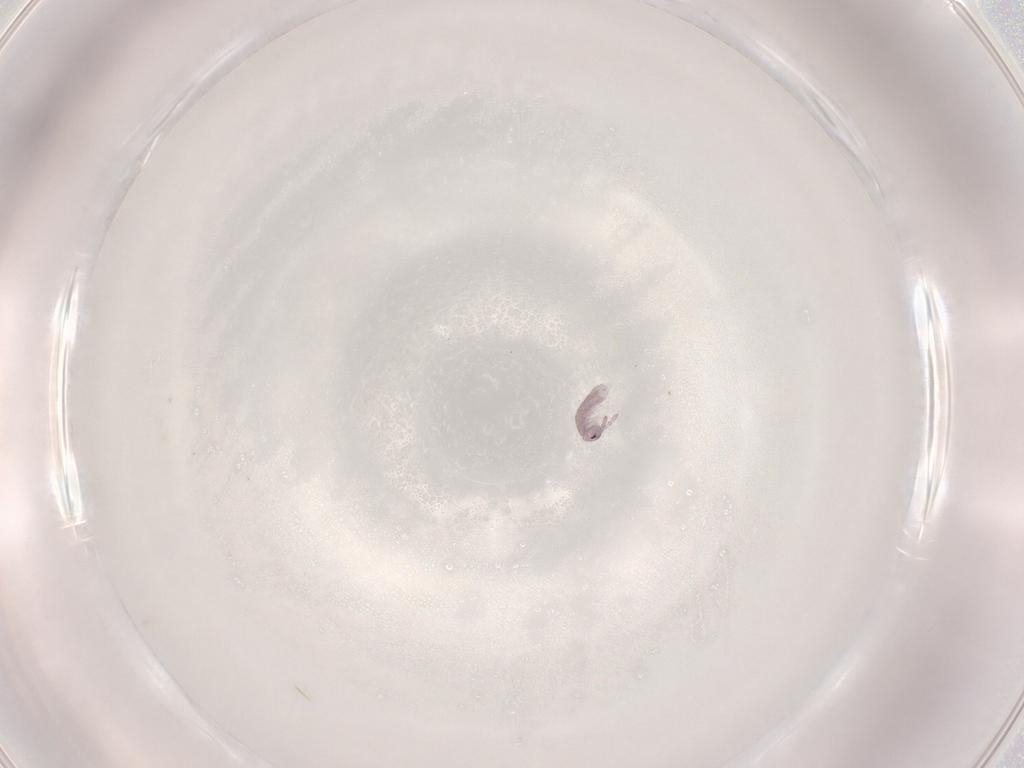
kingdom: Animalia
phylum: Arthropoda
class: Collembola
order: Entomobryomorpha
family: Isotomidae
